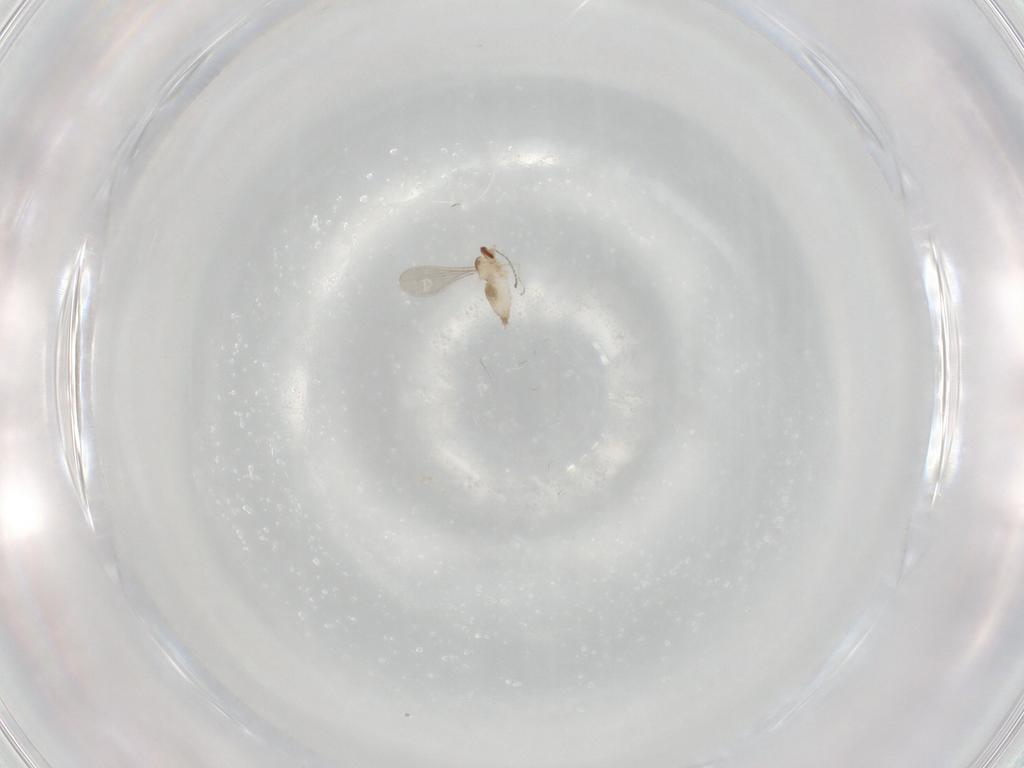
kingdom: Animalia
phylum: Arthropoda
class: Insecta
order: Diptera
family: Cecidomyiidae
